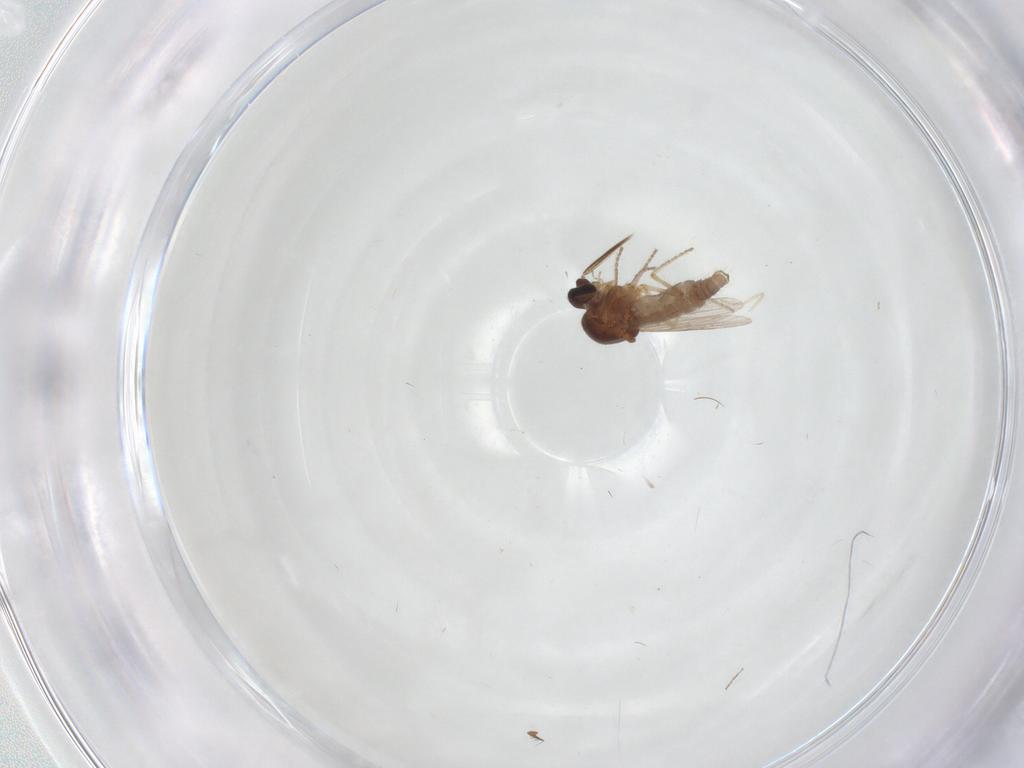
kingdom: Animalia
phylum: Arthropoda
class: Insecta
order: Diptera
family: Ceratopogonidae
